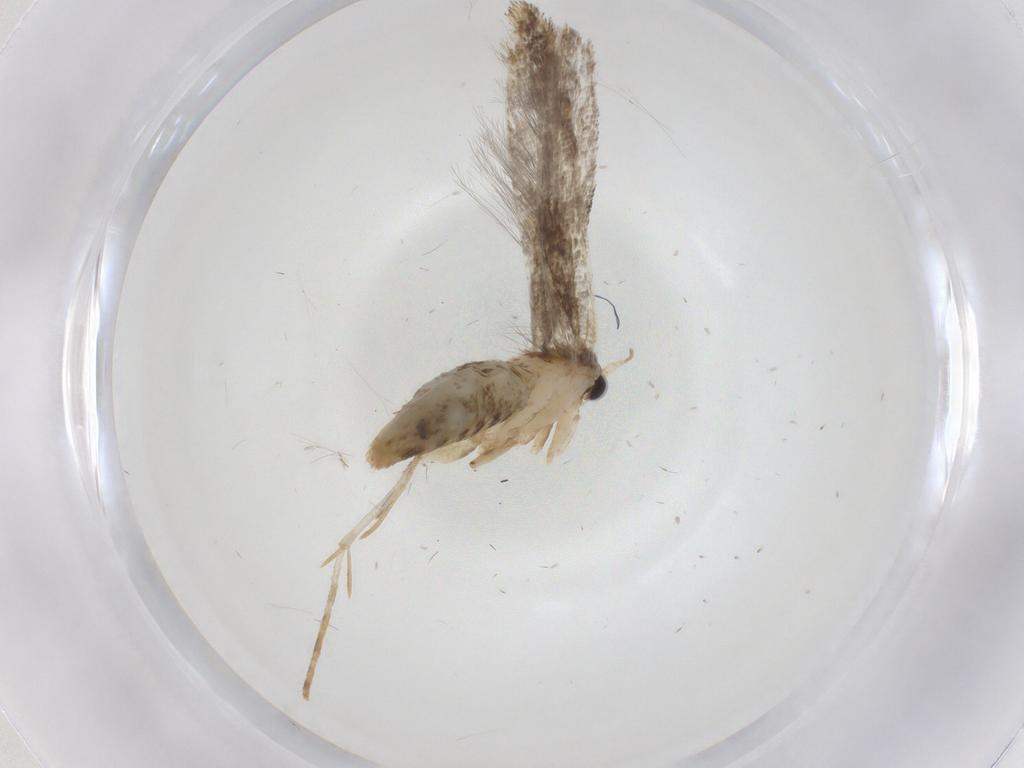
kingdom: Animalia
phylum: Arthropoda
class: Insecta
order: Lepidoptera
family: Tineidae
